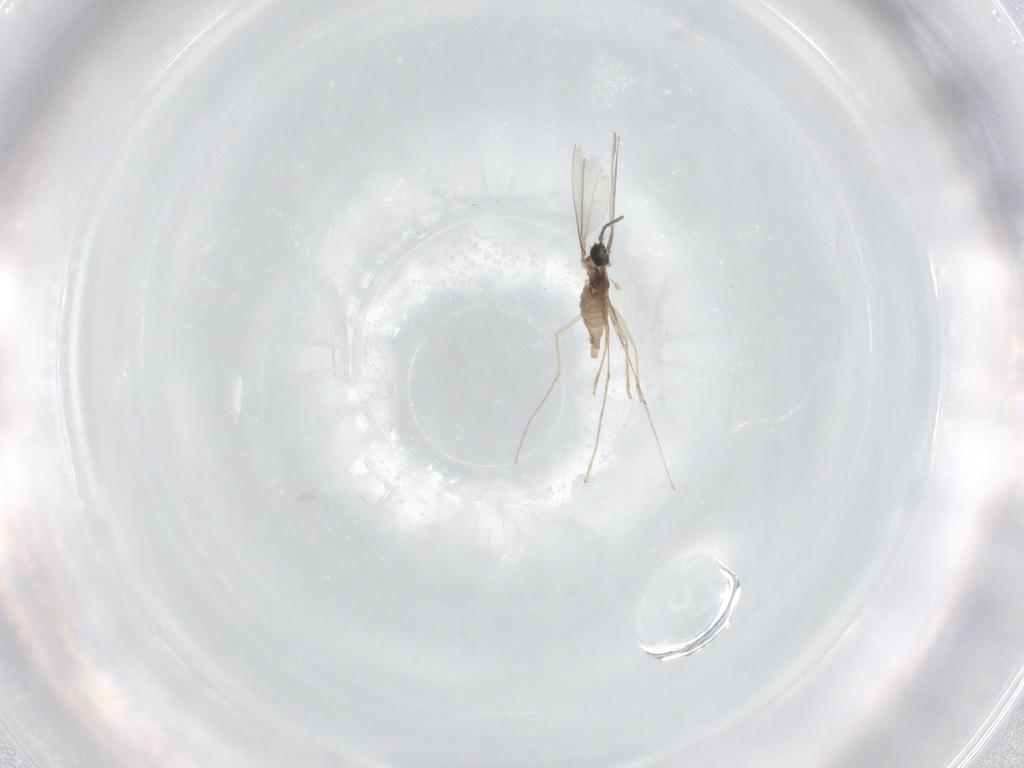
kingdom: Animalia
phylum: Arthropoda
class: Insecta
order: Diptera
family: Cecidomyiidae
